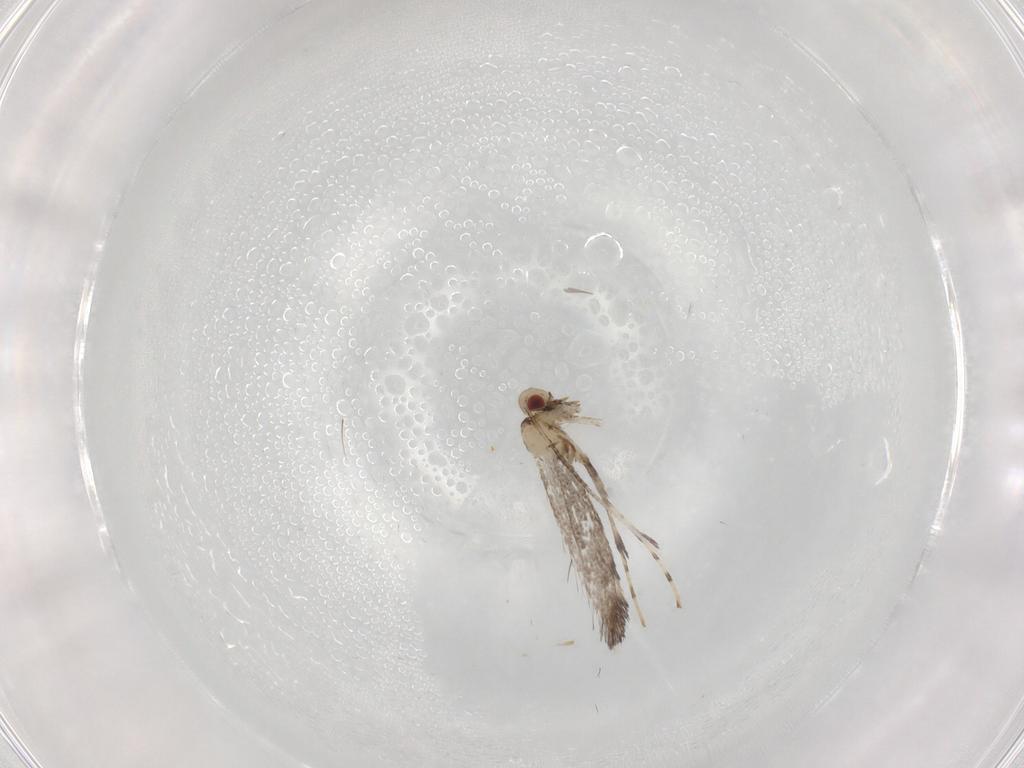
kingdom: Animalia
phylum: Arthropoda
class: Insecta
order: Lepidoptera
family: Gracillariidae
